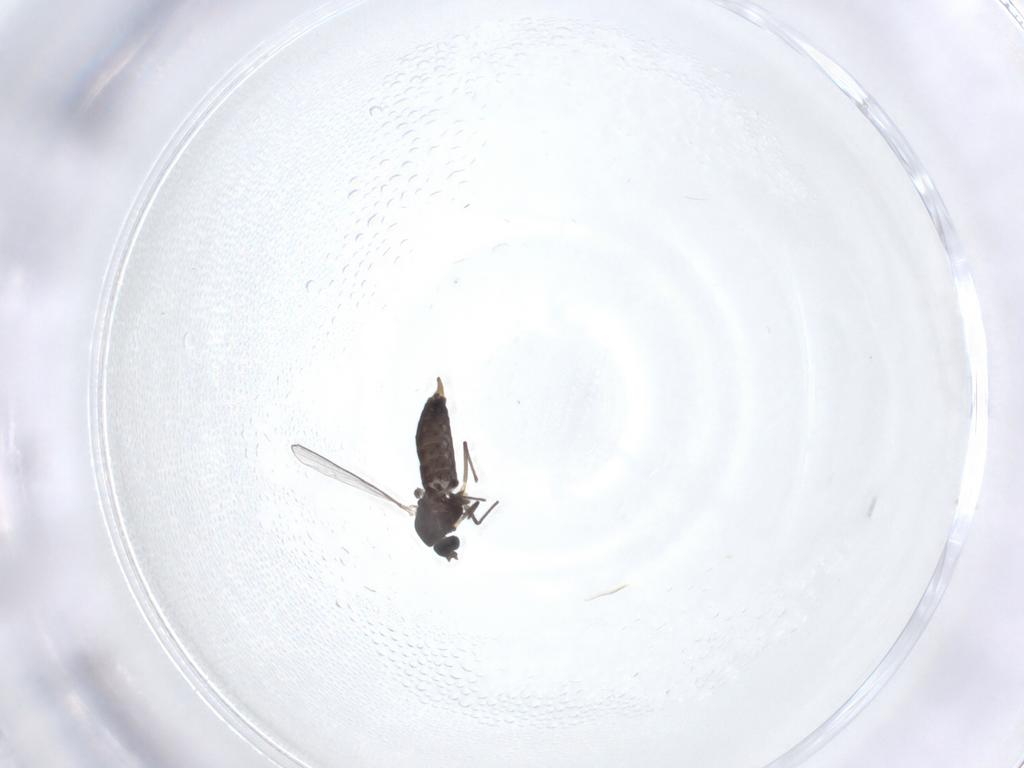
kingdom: Animalia
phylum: Arthropoda
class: Insecta
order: Diptera
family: Chironomidae
